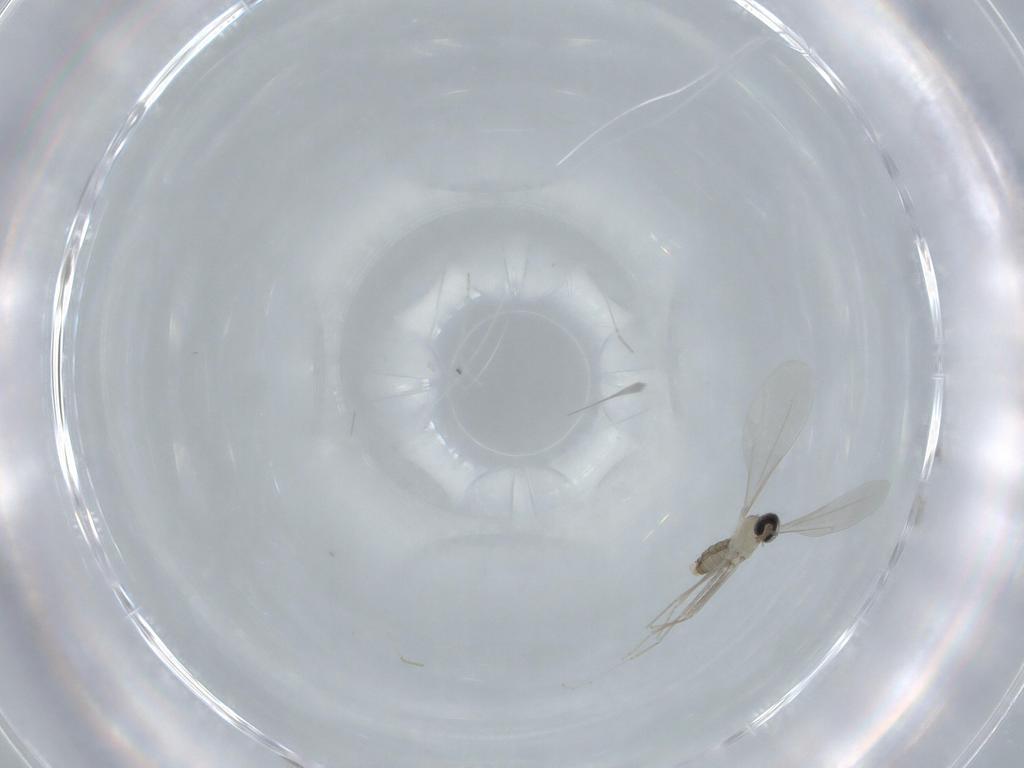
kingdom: Animalia
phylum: Arthropoda
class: Insecta
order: Diptera
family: Cecidomyiidae
